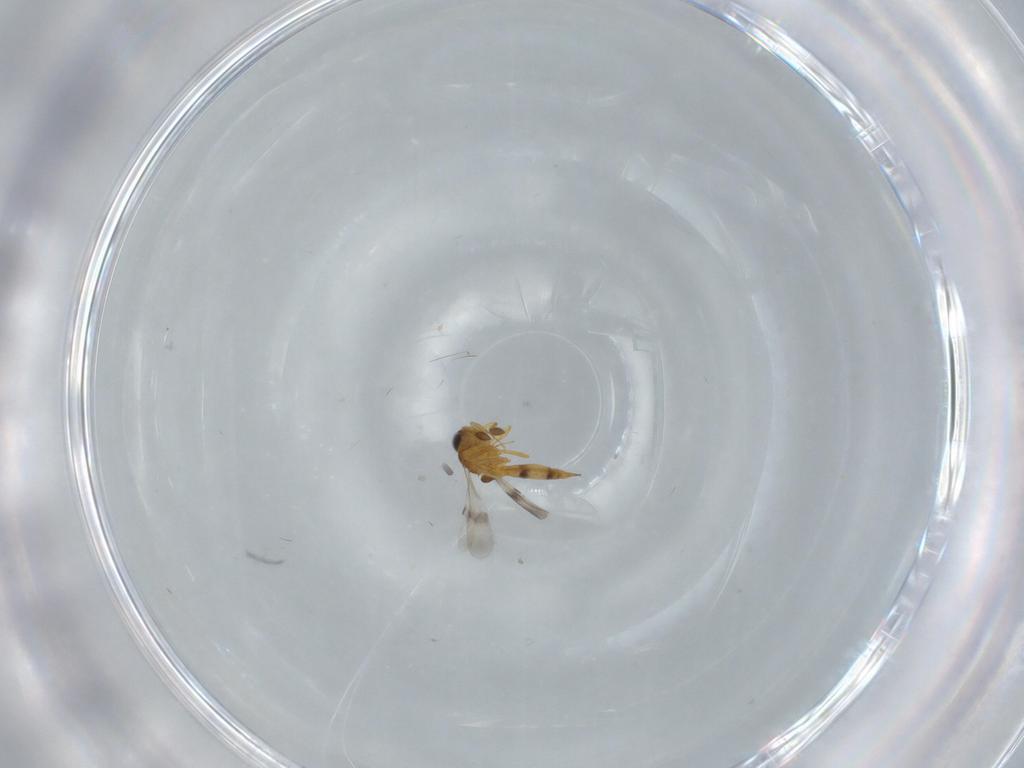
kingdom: Animalia
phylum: Arthropoda
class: Insecta
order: Hymenoptera
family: Scelionidae
